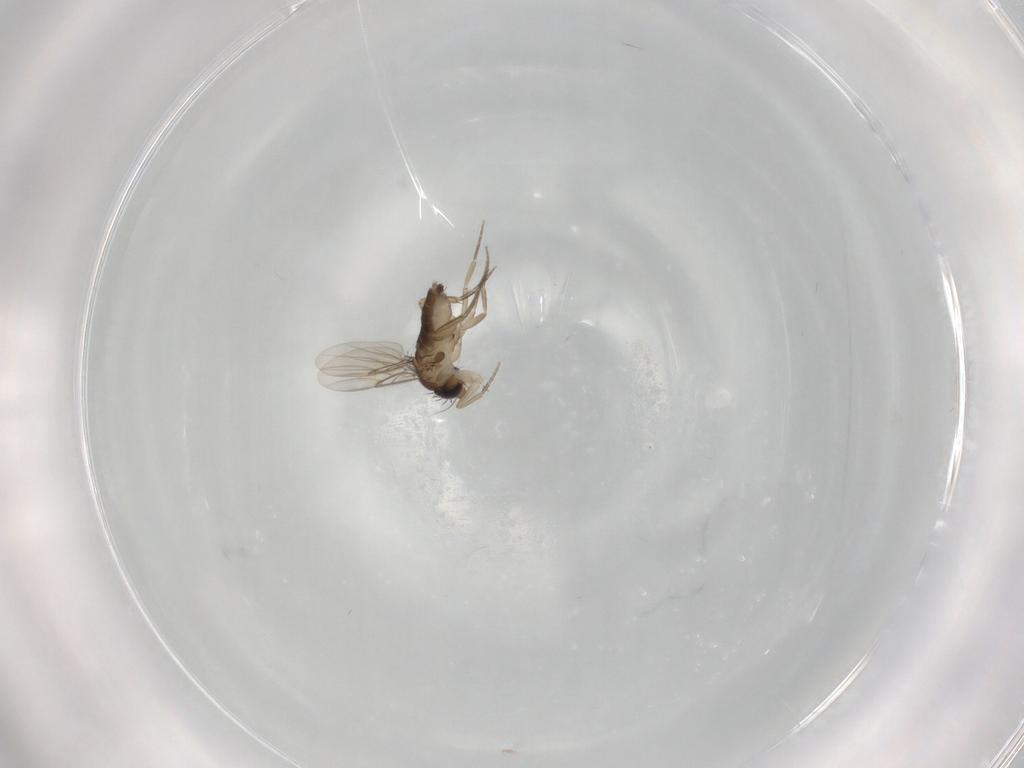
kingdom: Animalia
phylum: Arthropoda
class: Insecta
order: Diptera
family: Phoridae
